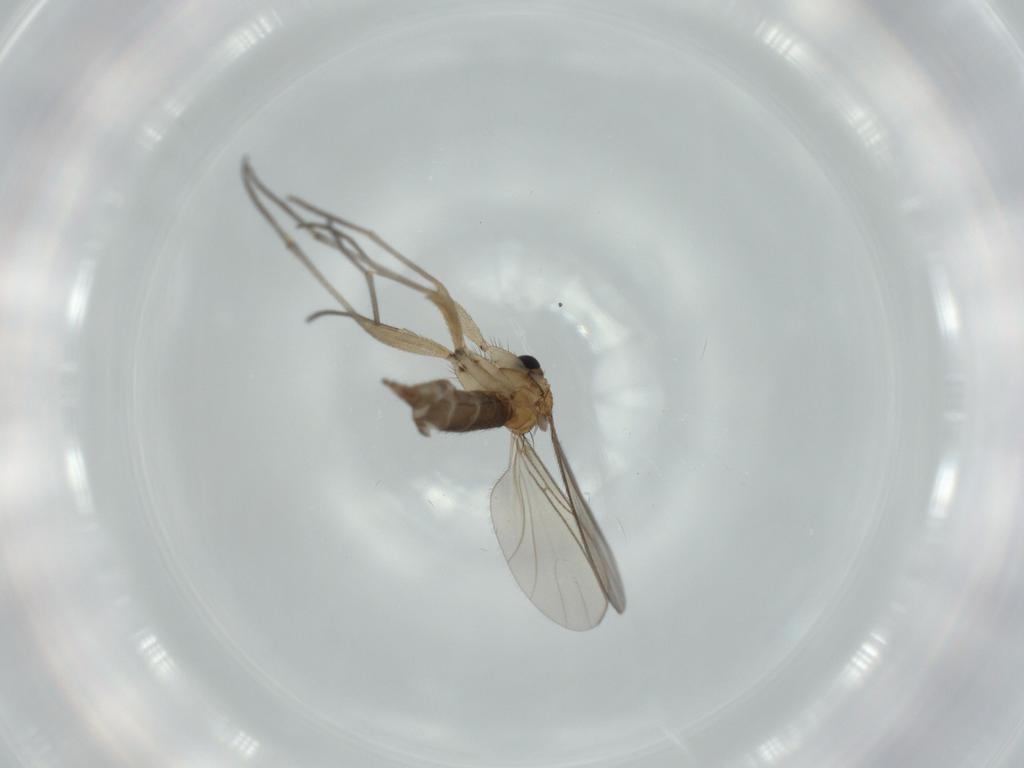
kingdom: Animalia
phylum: Arthropoda
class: Insecta
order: Diptera
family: Sciaridae
